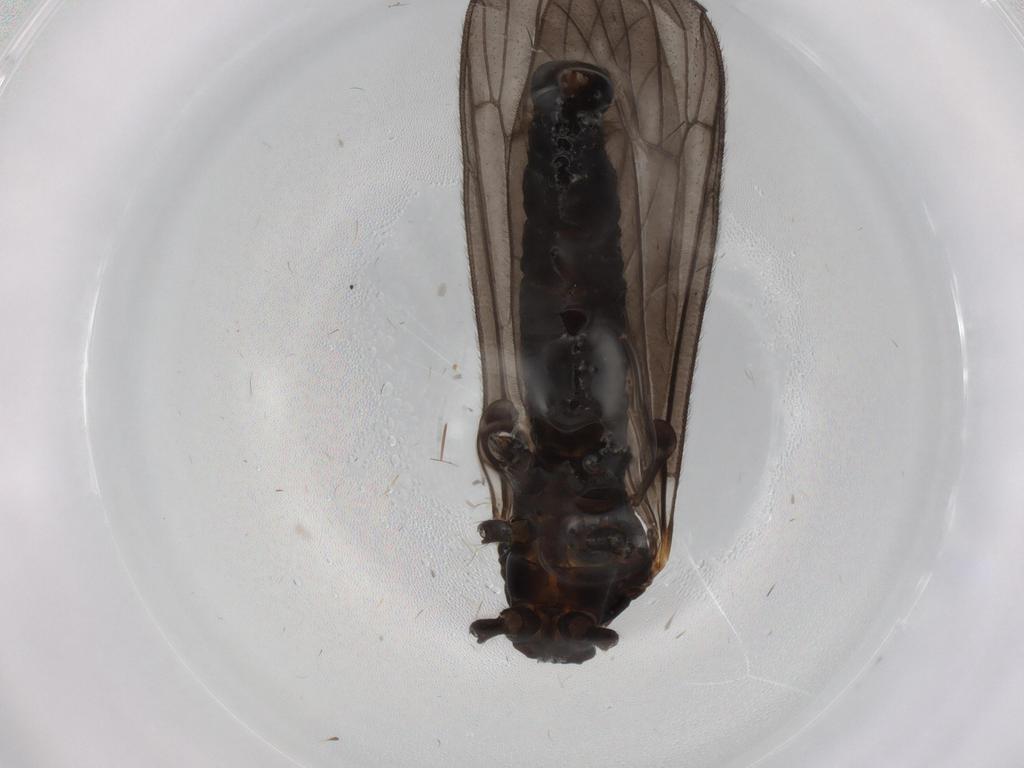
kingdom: Animalia
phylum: Arthropoda
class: Insecta
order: Diptera
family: Limoniidae
